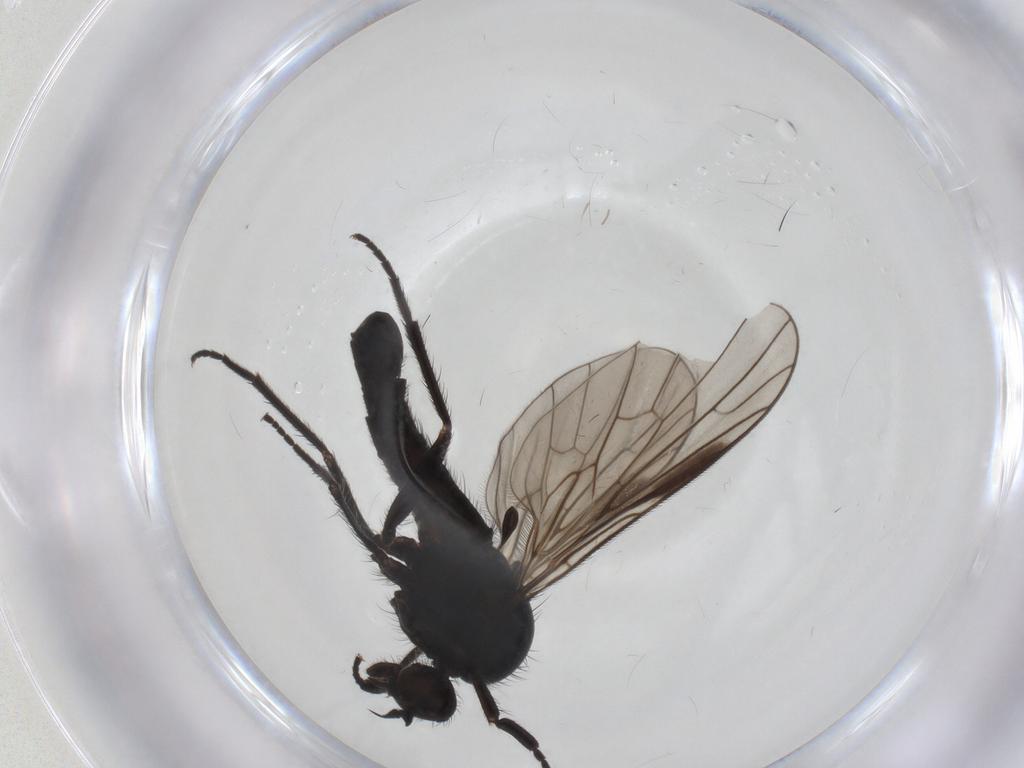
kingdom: Animalia
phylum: Arthropoda
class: Insecta
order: Diptera
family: Empididae
